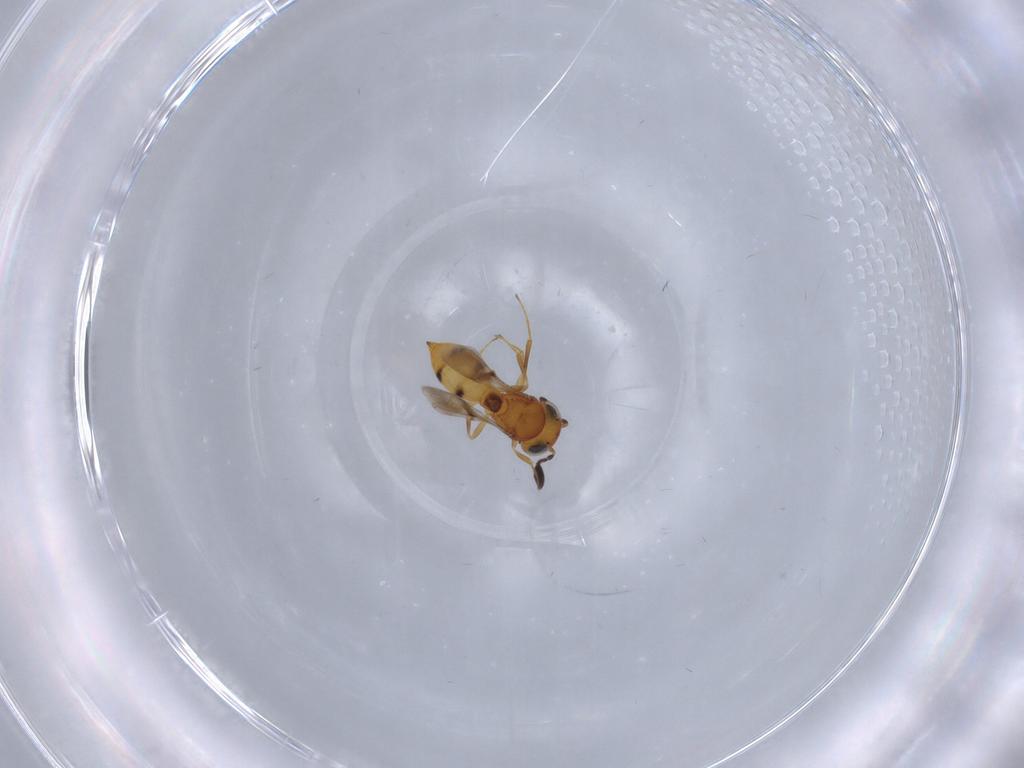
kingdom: Animalia
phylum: Arthropoda
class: Insecta
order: Hymenoptera
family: Scelionidae
